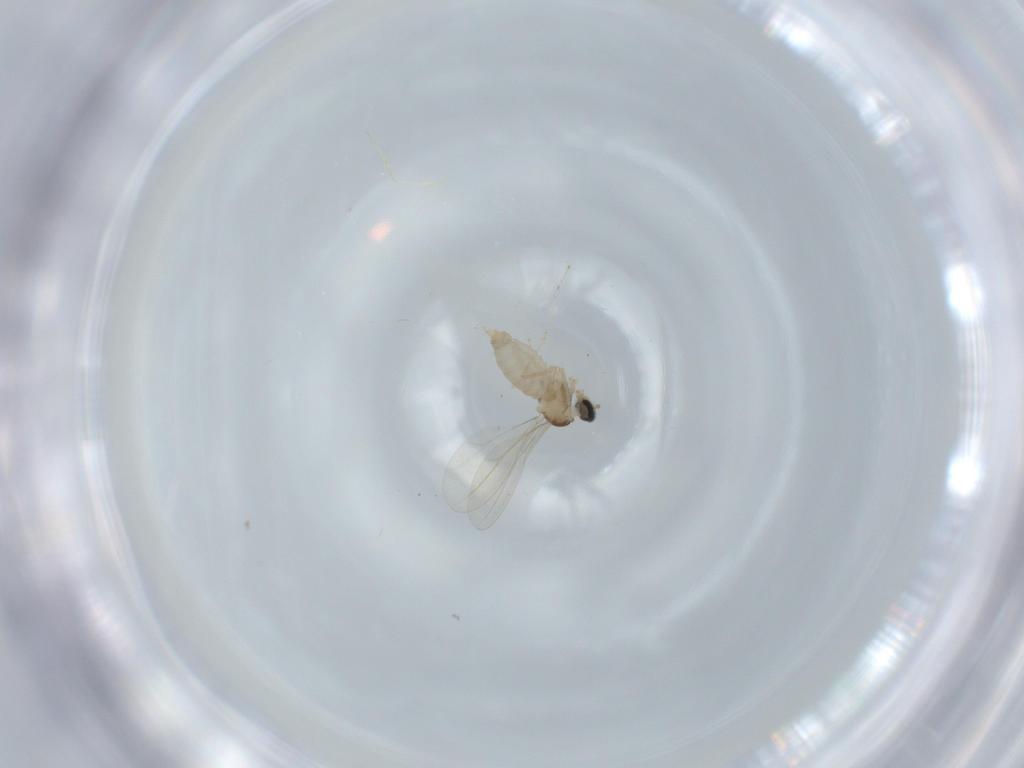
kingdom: Animalia
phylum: Arthropoda
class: Insecta
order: Diptera
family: Cecidomyiidae
